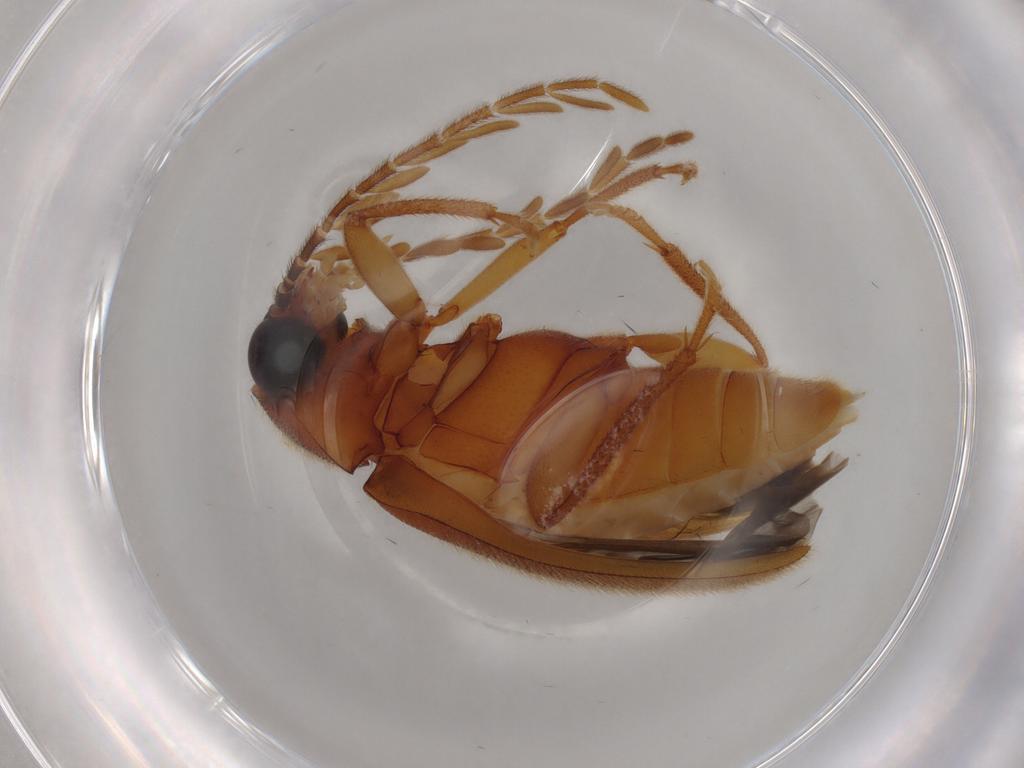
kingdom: Animalia
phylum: Arthropoda
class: Insecta
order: Coleoptera
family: Ptilodactylidae
